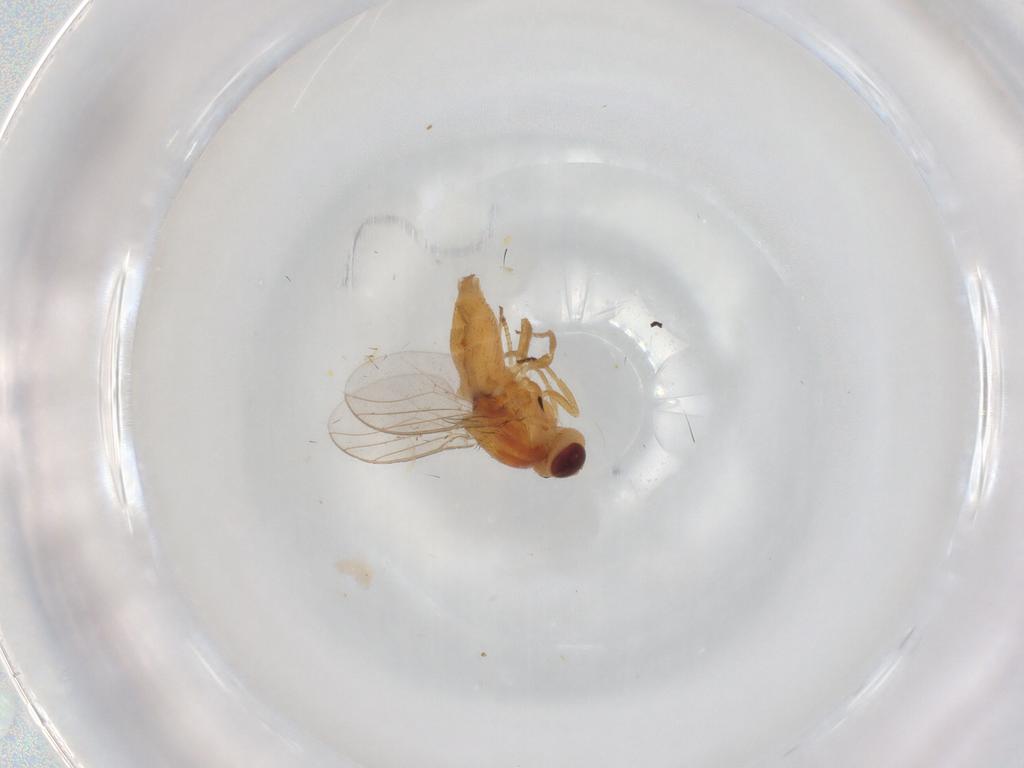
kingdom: Animalia
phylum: Arthropoda
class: Insecta
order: Diptera
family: Chloropidae
